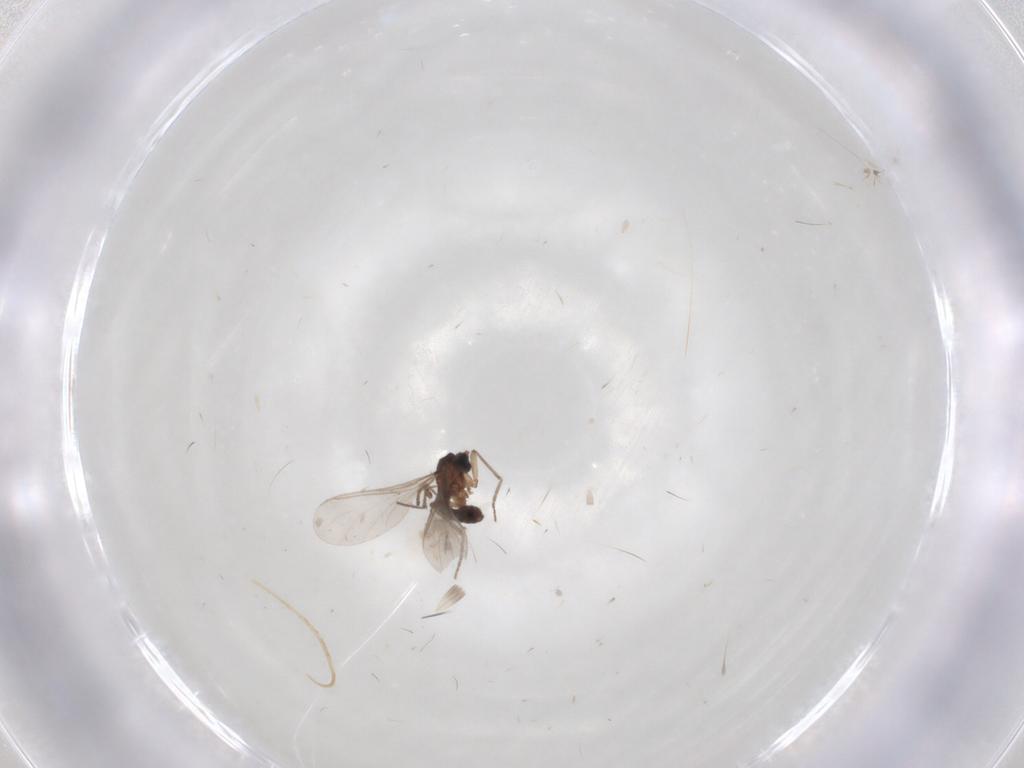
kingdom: Animalia
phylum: Arthropoda
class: Insecta
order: Diptera
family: Sciaridae
